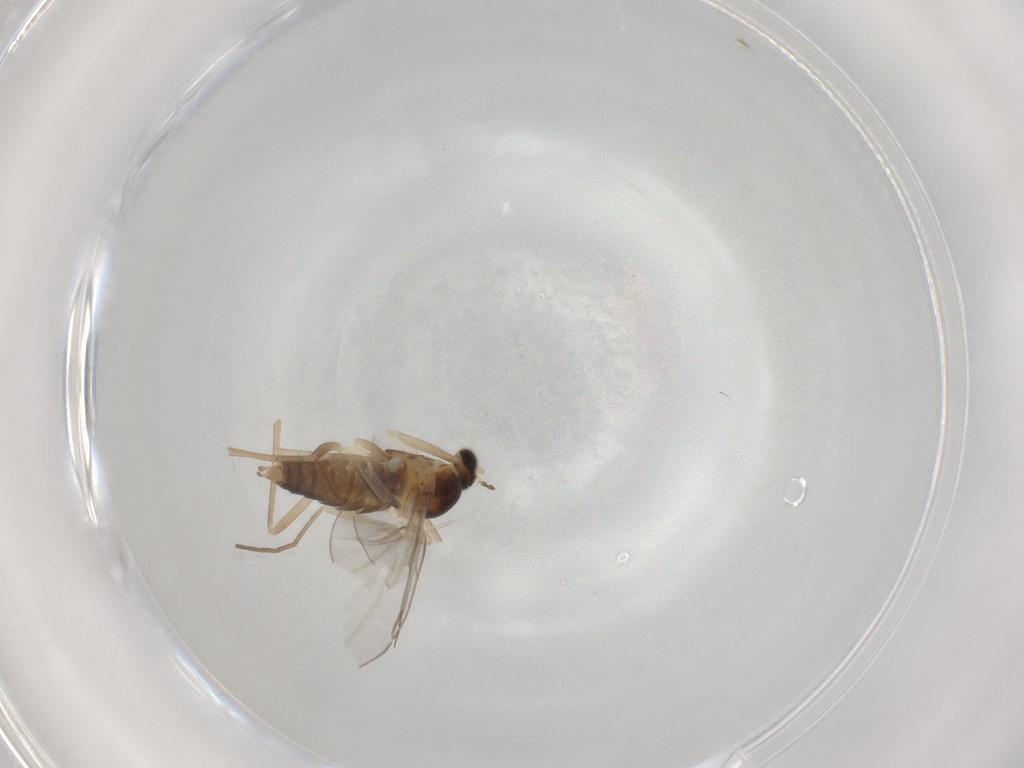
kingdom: Animalia
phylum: Arthropoda
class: Insecta
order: Diptera
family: Cecidomyiidae
